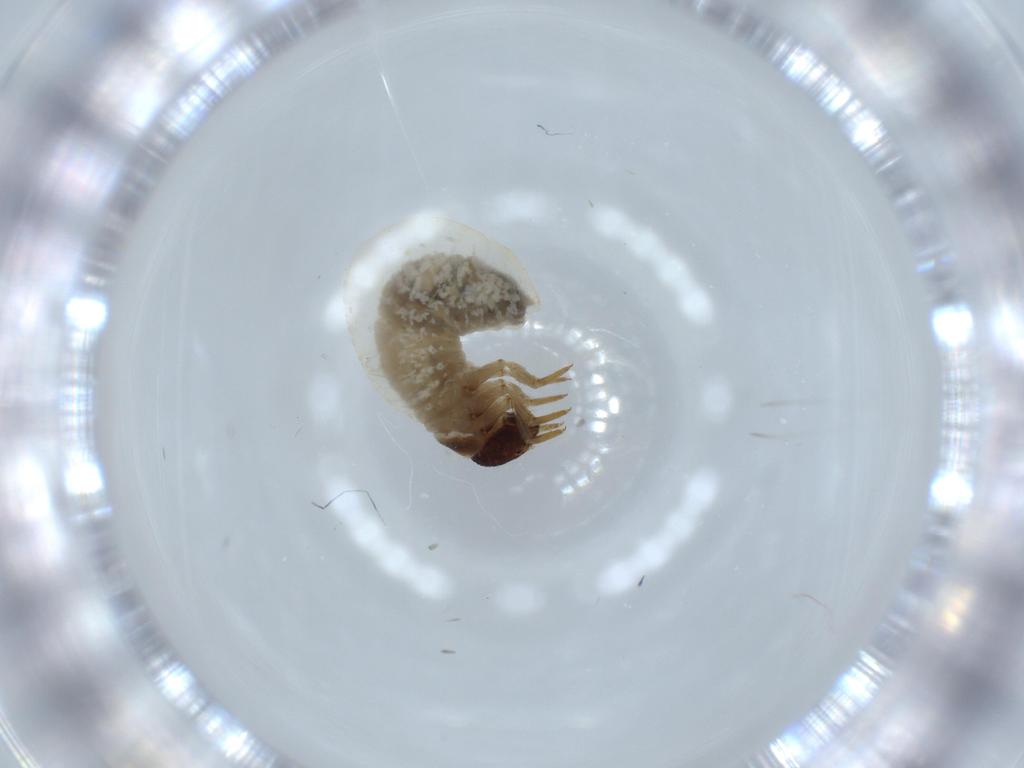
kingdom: Animalia
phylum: Arthropoda
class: Insecta
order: Coleoptera
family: Chrysomelidae
